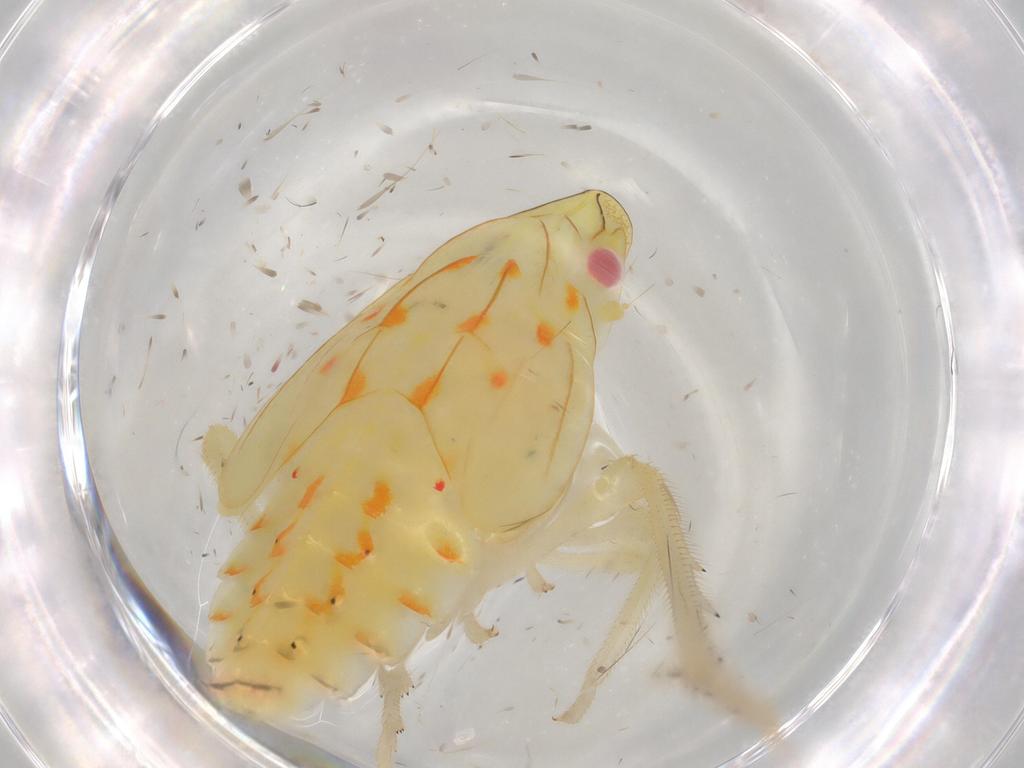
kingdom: Animalia
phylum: Arthropoda
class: Insecta
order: Hemiptera
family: Tropiduchidae
